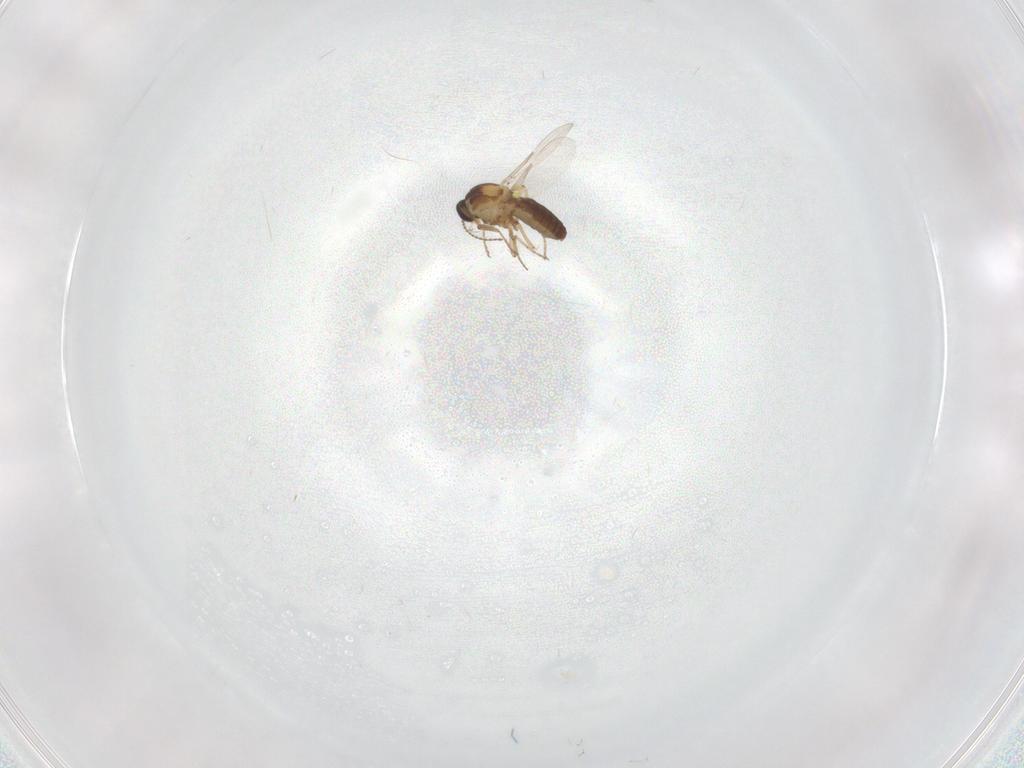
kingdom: Animalia
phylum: Arthropoda
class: Insecta
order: Diptera
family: Ceratopogonidae
